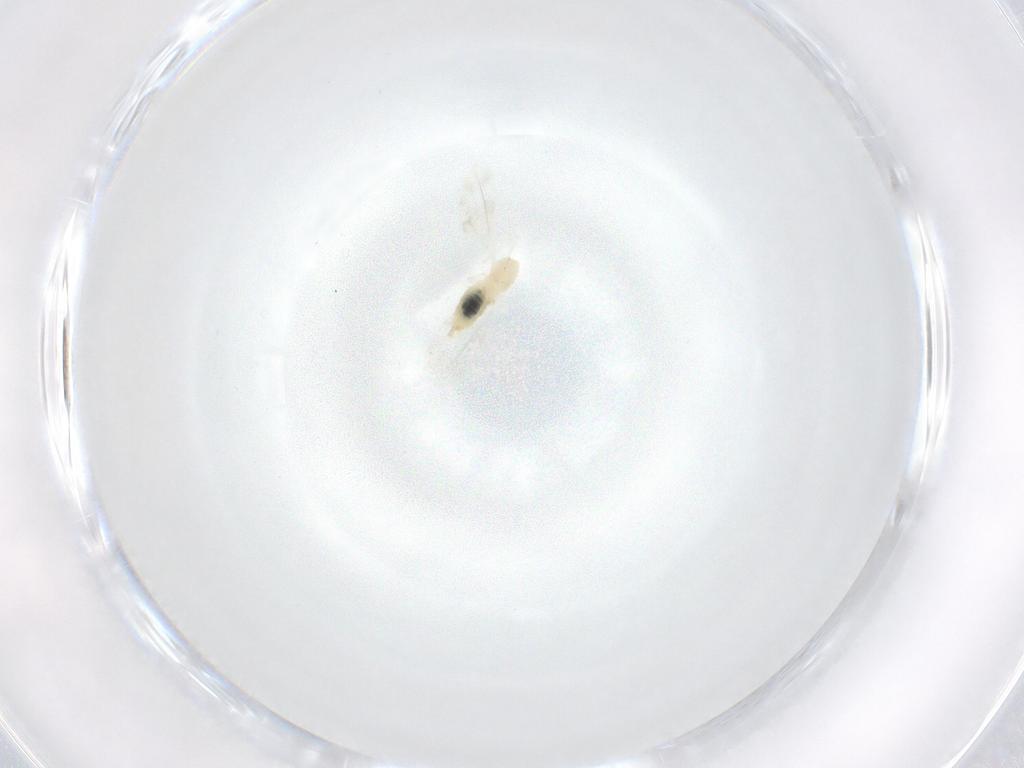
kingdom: Animalia
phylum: Arthropoda
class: Insecta
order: Diptera
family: Cecidomyiidae
